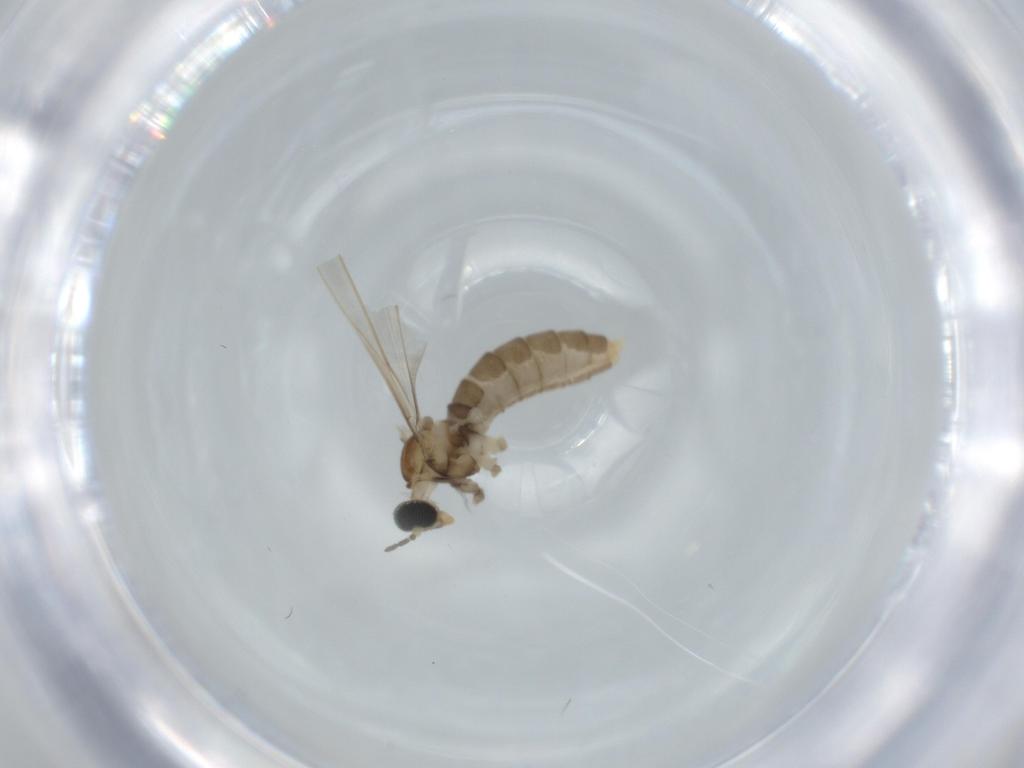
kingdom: Animalia
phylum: Arthropoda
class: Insecta
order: Diptera
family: Cecidomyiidae
